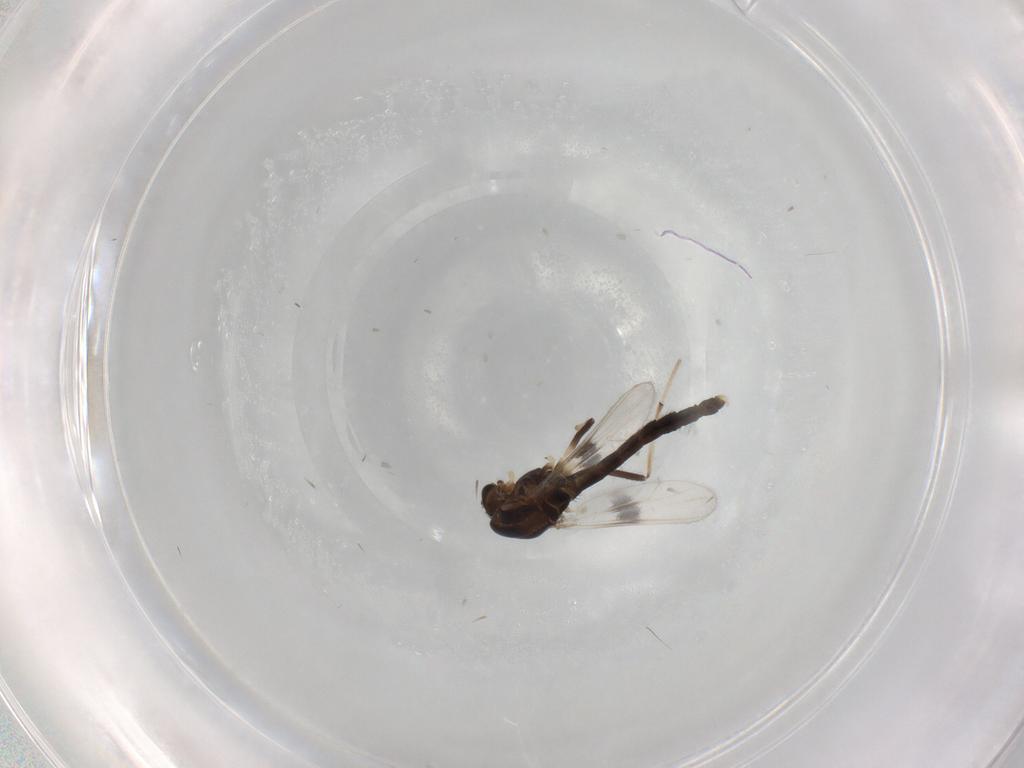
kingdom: Animalia
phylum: Arthropoda
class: Insecta
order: Diptera
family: Chironomidae
